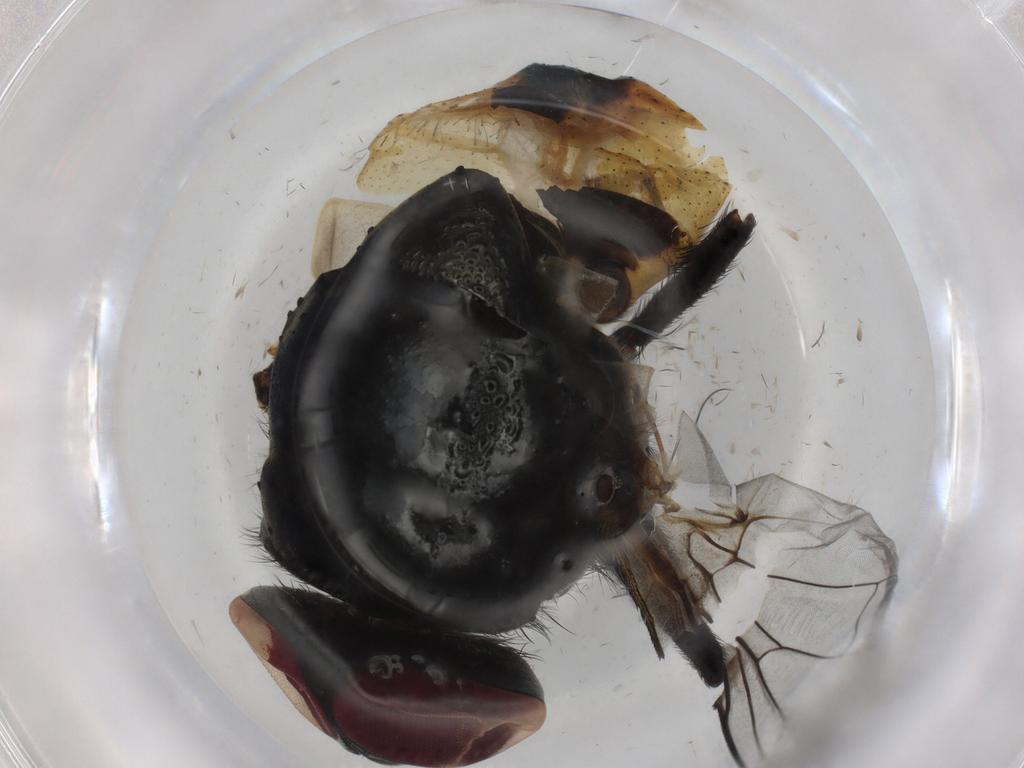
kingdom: Animalia
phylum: Arthropoda
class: Insecta
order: Diptera
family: Muscidae
